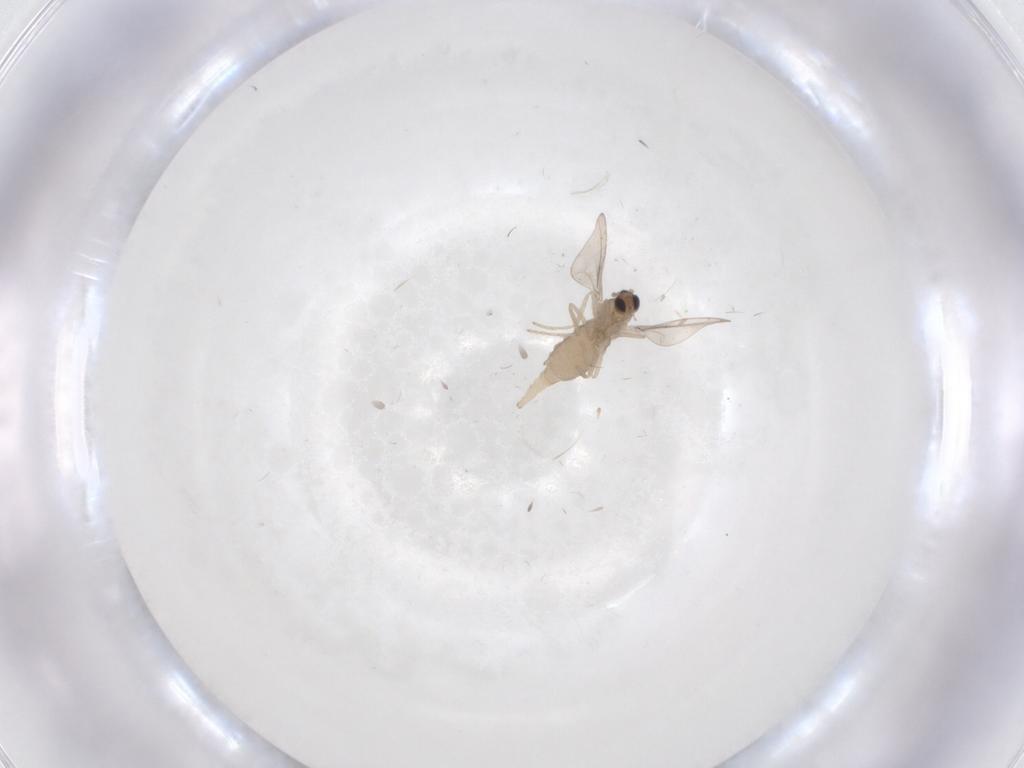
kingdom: Animalia
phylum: Arthropoda
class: Insecta
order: Diptera
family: Cecidomyiidae
